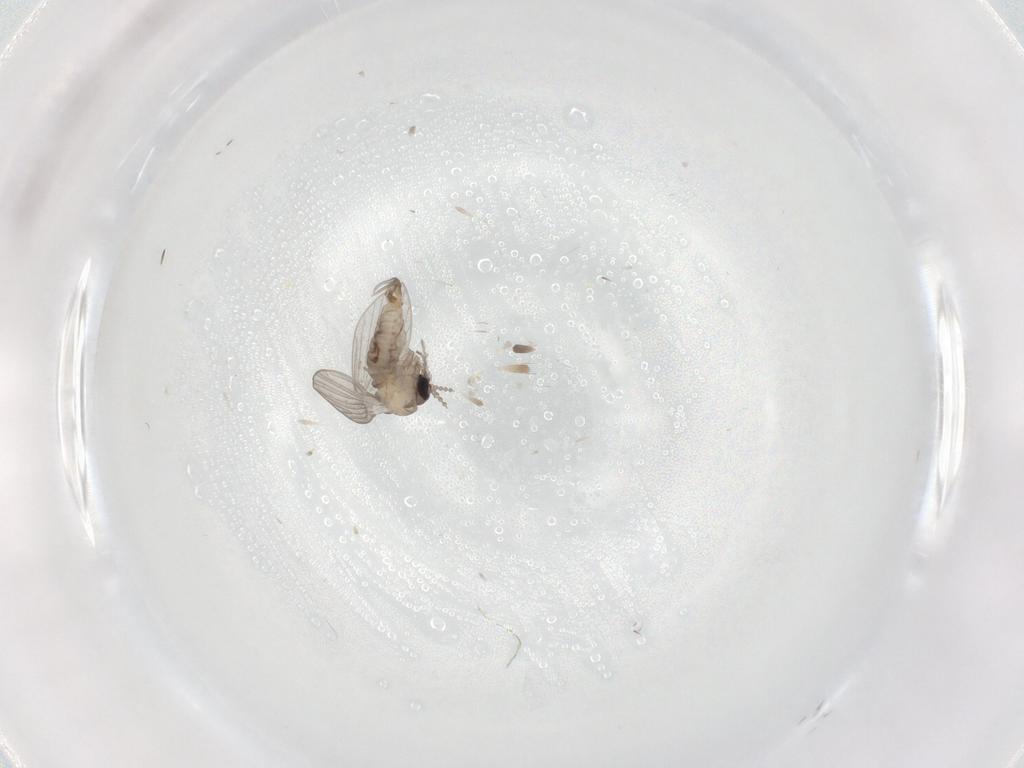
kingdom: Animalia
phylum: Arthropoda
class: Insecta
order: Diptera
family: Psychodidae
